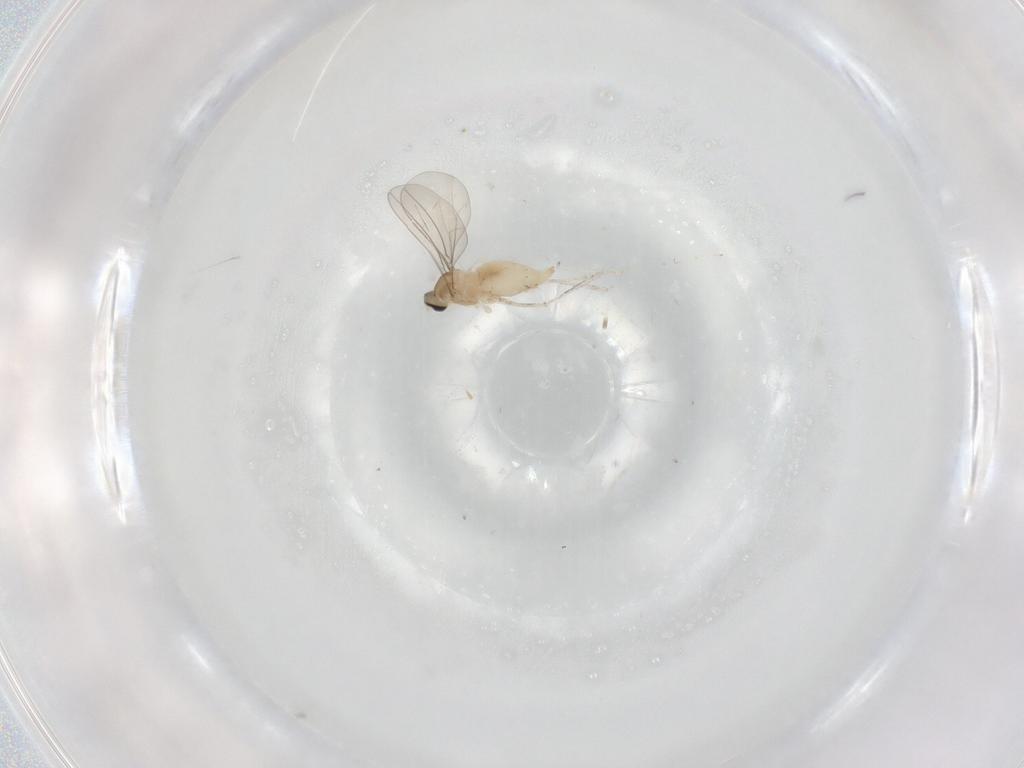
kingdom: Animalia
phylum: Arthropoda
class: Insecta
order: Diptera
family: Cecidomyiidae
